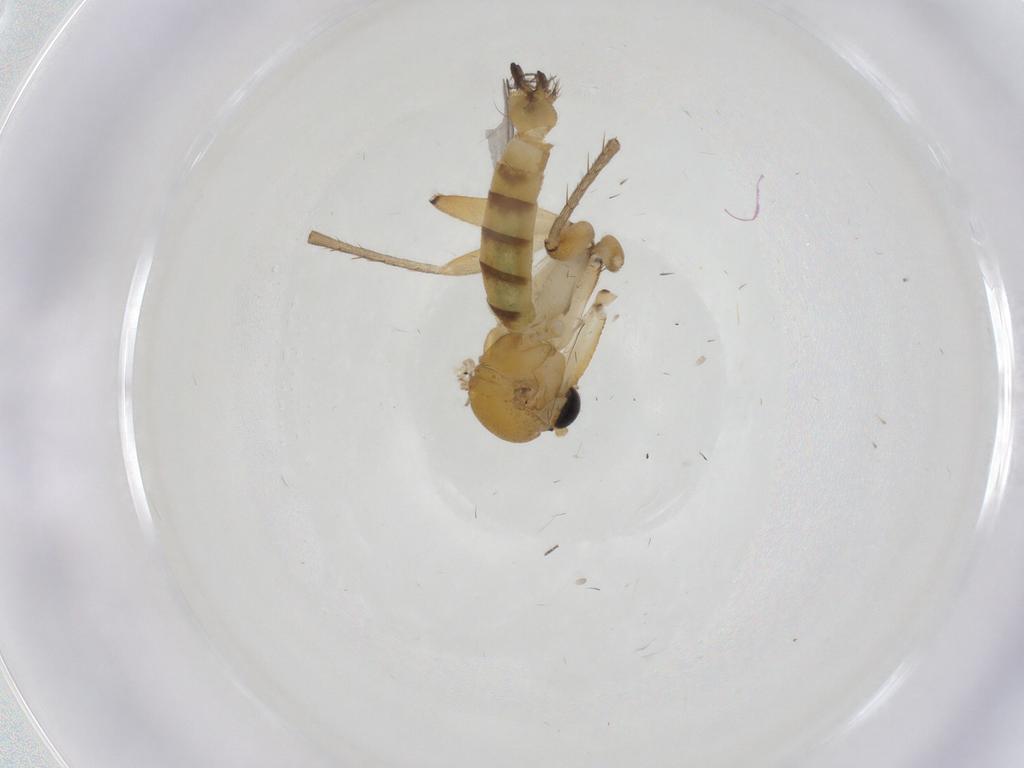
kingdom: Animalia
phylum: Arthropoda
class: Insecta
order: Diptera
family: Mycetophilidae
